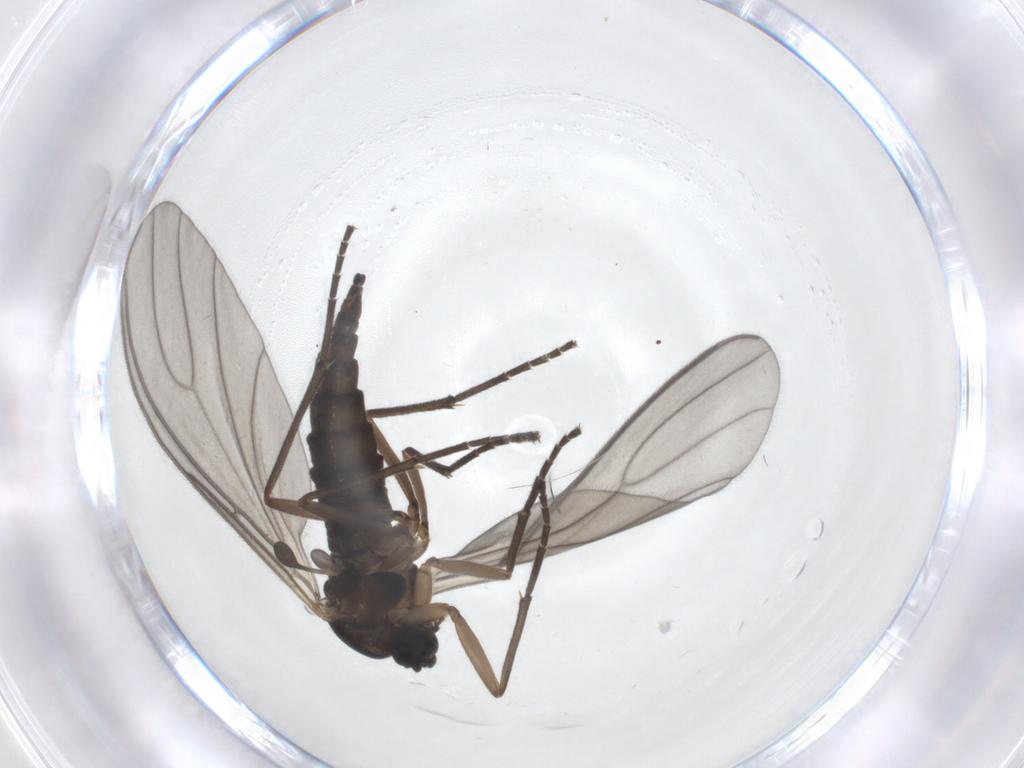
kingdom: Animalia
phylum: Arthropoda
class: Insecta
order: Diptera
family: Sciaridae
